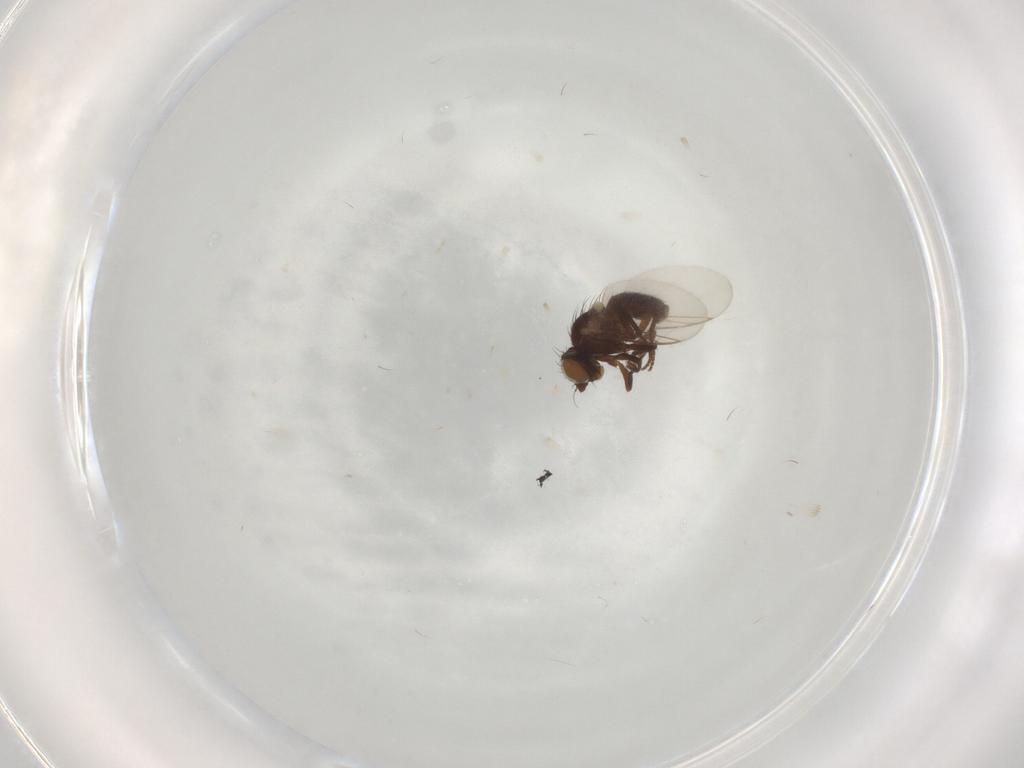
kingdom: Animalia
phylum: Arthropoda
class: Insecta
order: Diptera
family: Agromyzidae
